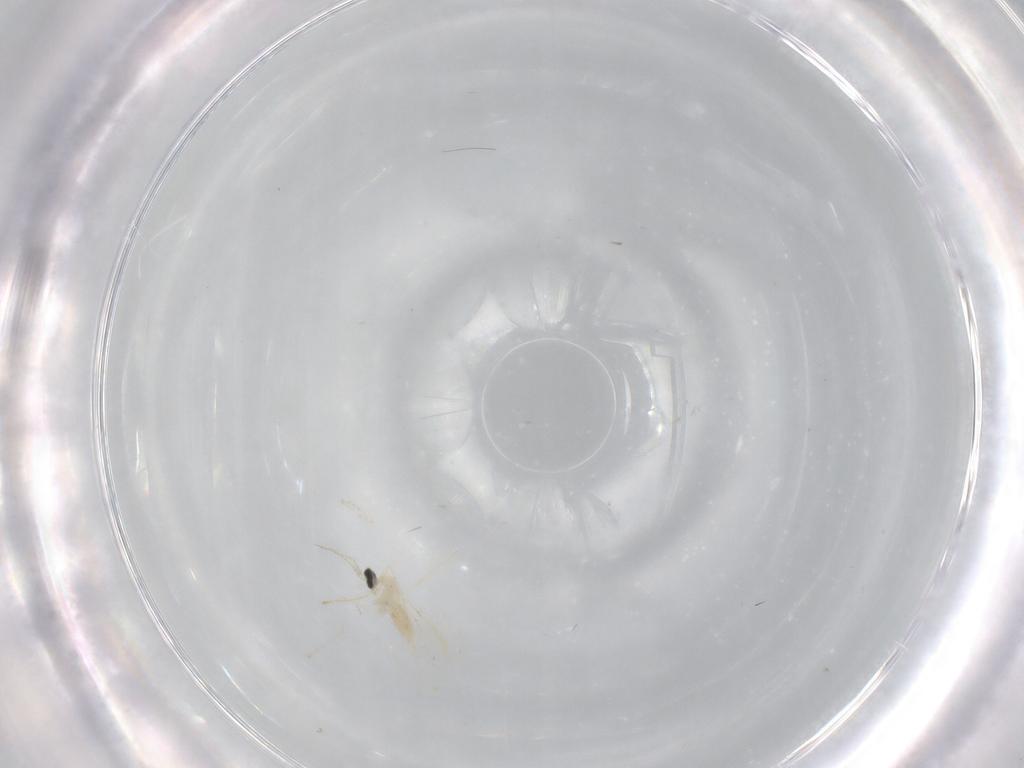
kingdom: Animalia
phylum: Arthropoda
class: Insecta
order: Diptera
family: Cecidomyiidae
